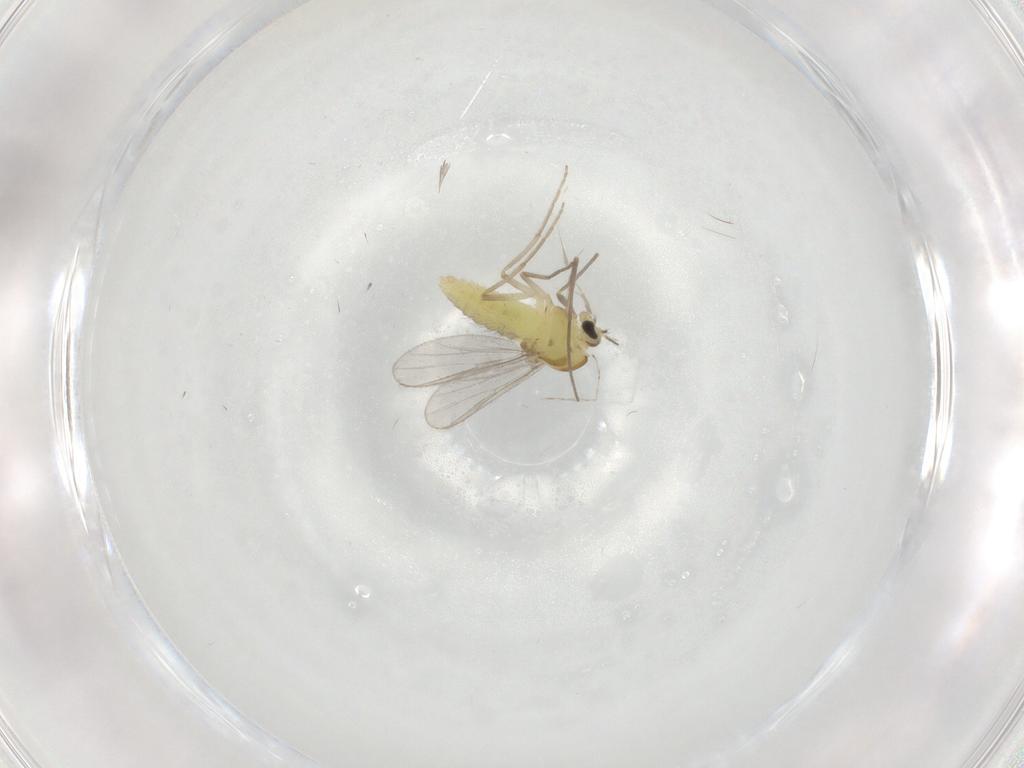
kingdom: Animalia
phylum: Arthropoda
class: Insecta
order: Diptera
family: Chironomidae
